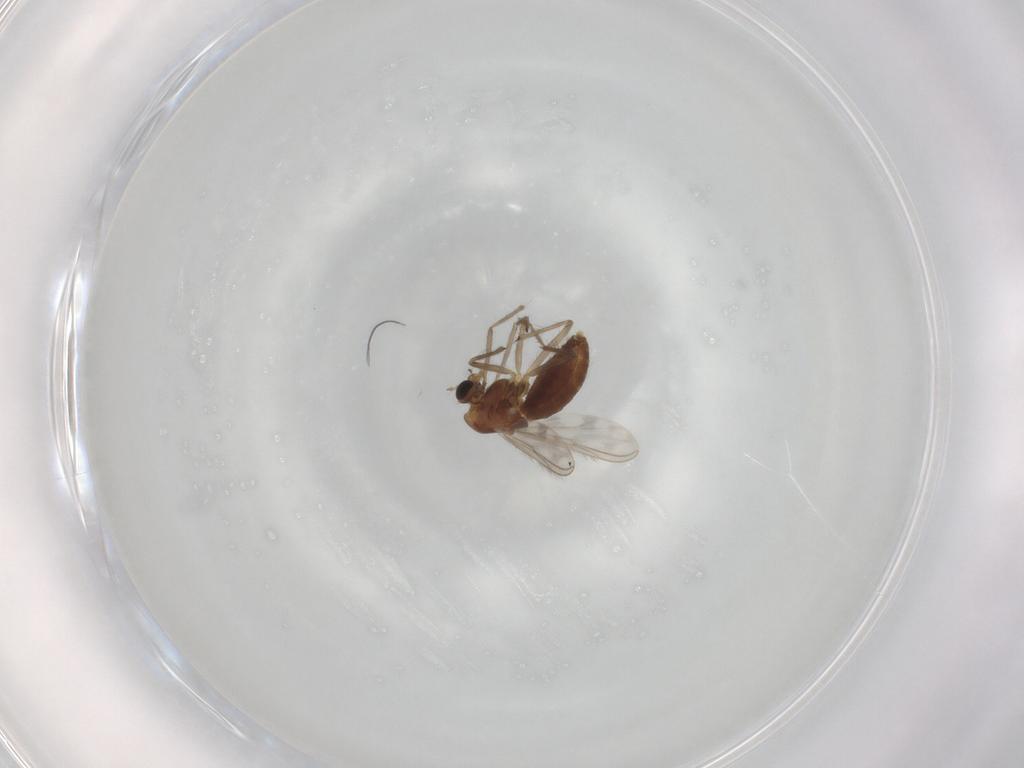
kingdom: Animalia
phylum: Arthropoda
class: Insecta
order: Diptera
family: Chironomidae
